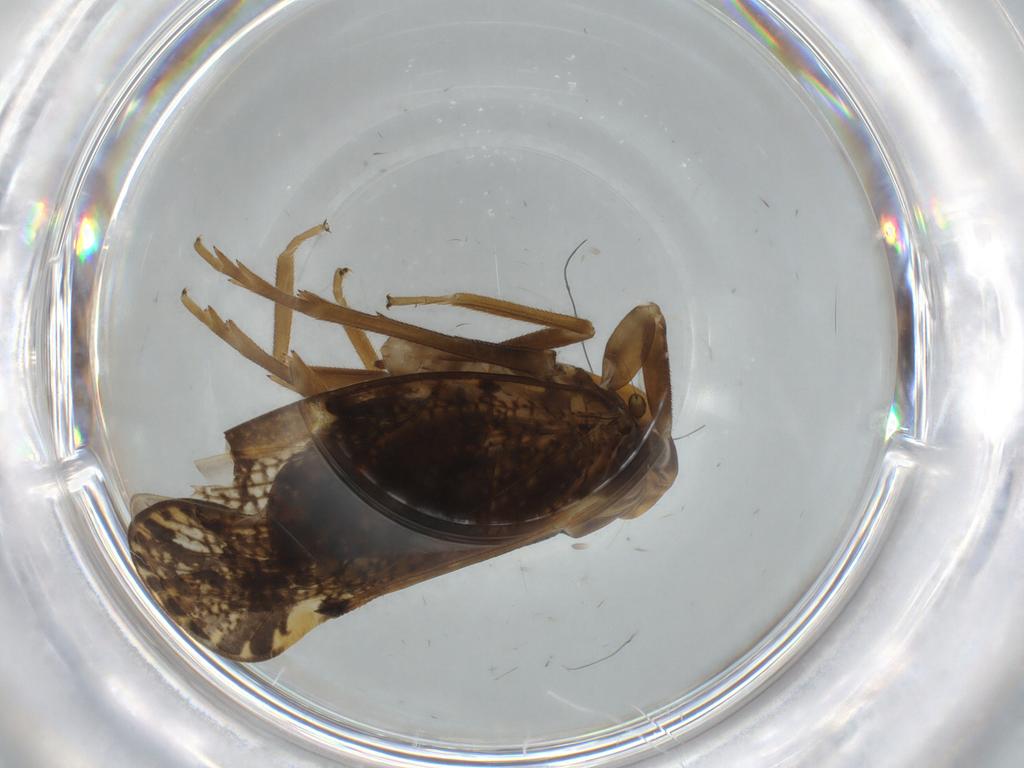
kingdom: Animalia
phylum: Arthropoda
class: Insecta
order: Hemiptera
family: Cixiidae
